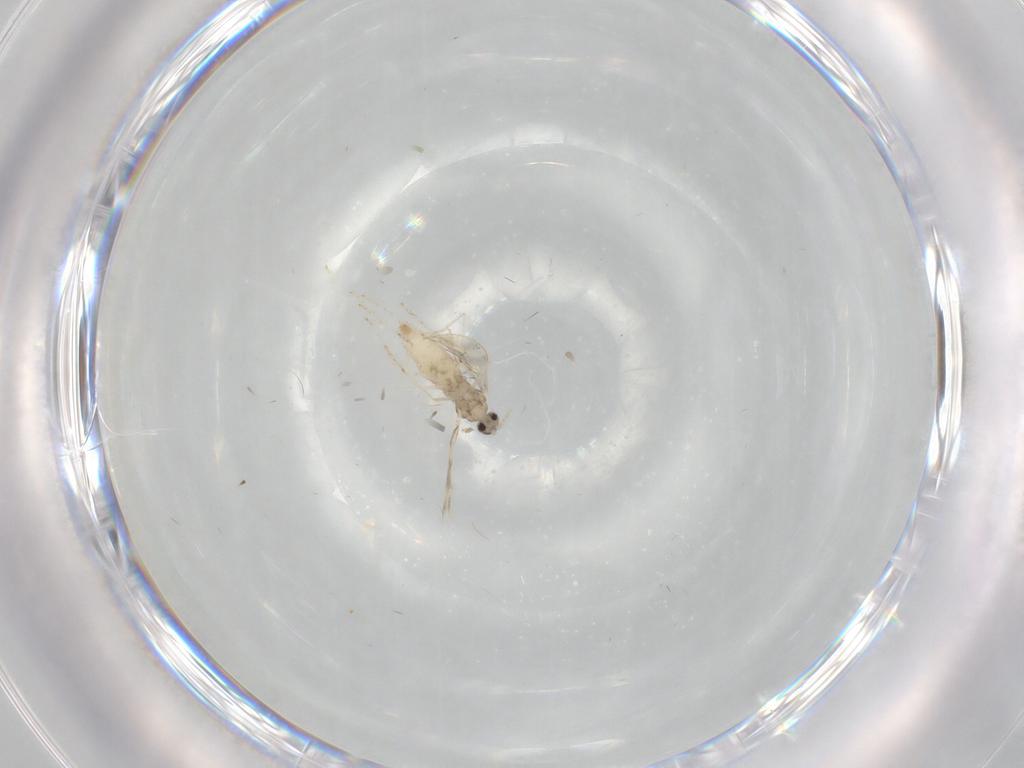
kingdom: Animalia
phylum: Arthropoda
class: Insecta
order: Diptera
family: Cecidomyiidae
